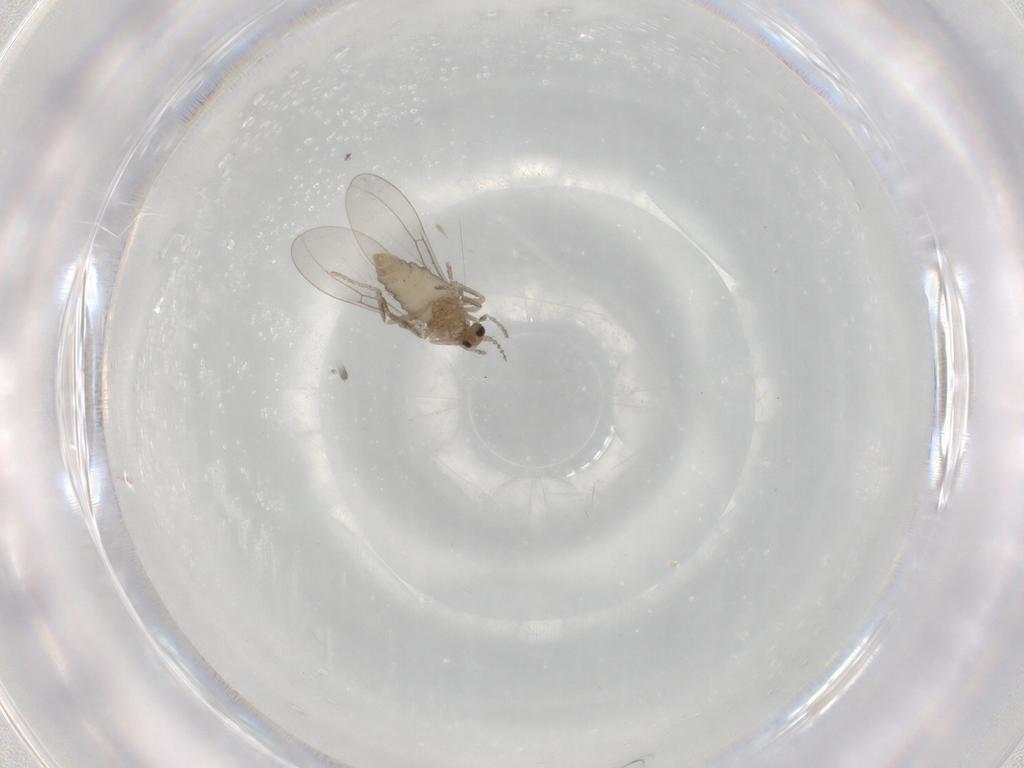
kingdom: Animalia
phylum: Arthropoda
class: Insecta
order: Diptera
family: Cecidomyiidae
